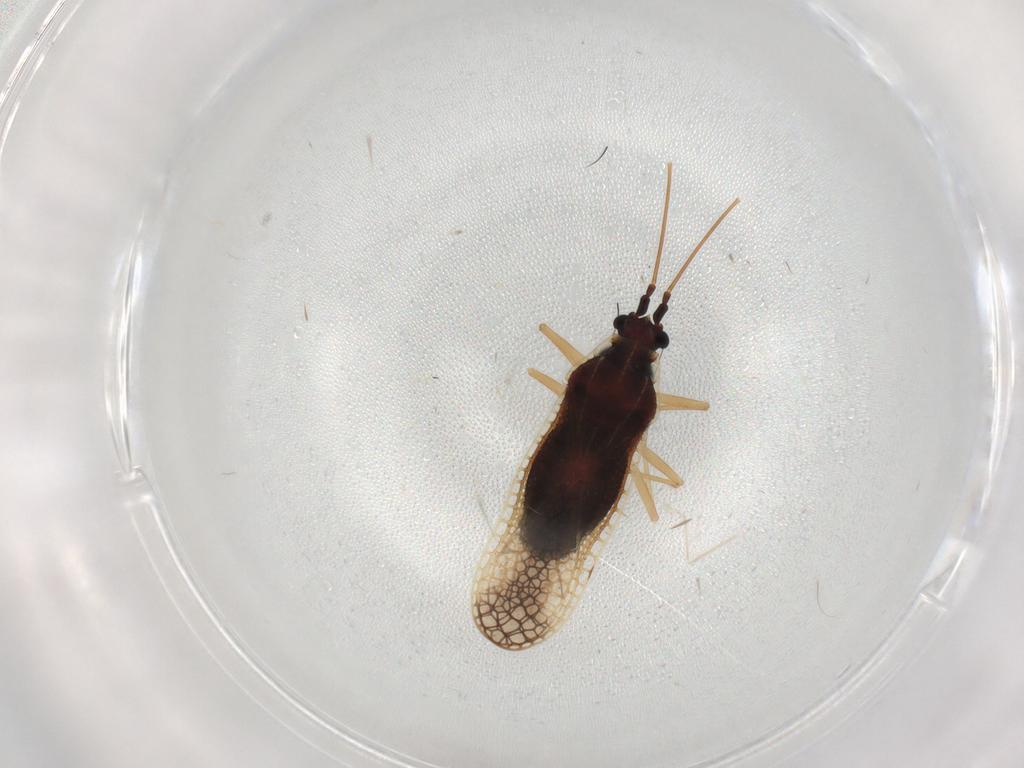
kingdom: Animalia
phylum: Arthropoda
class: Insecta
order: Hemiptera
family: Tingidae
